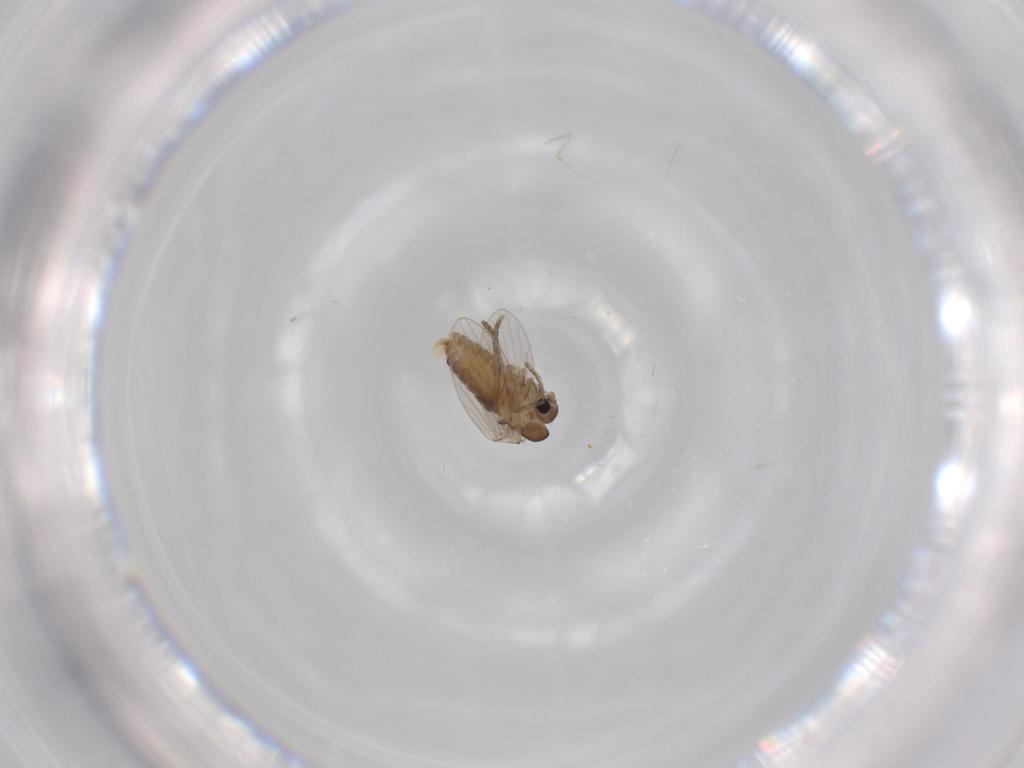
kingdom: Animalia
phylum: Arthropoda
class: Insecta
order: Diptera
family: Psychodidae
